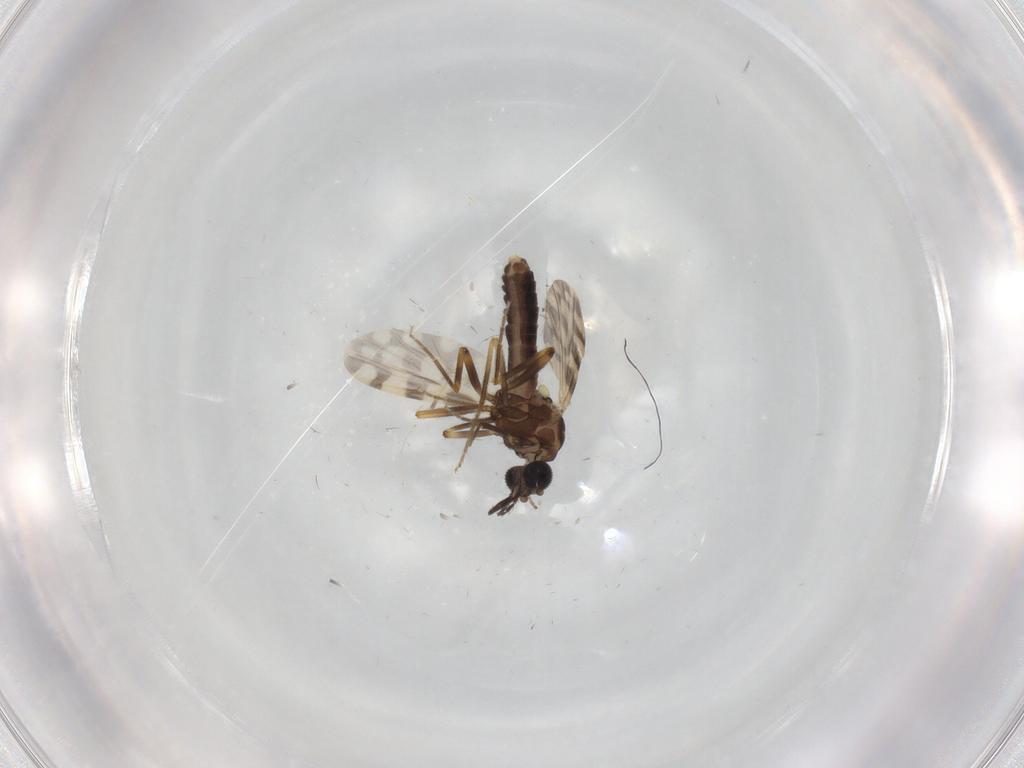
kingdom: Animalia
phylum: Arthropoda
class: Insecta
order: Diptera
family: Ceratopogonidae
